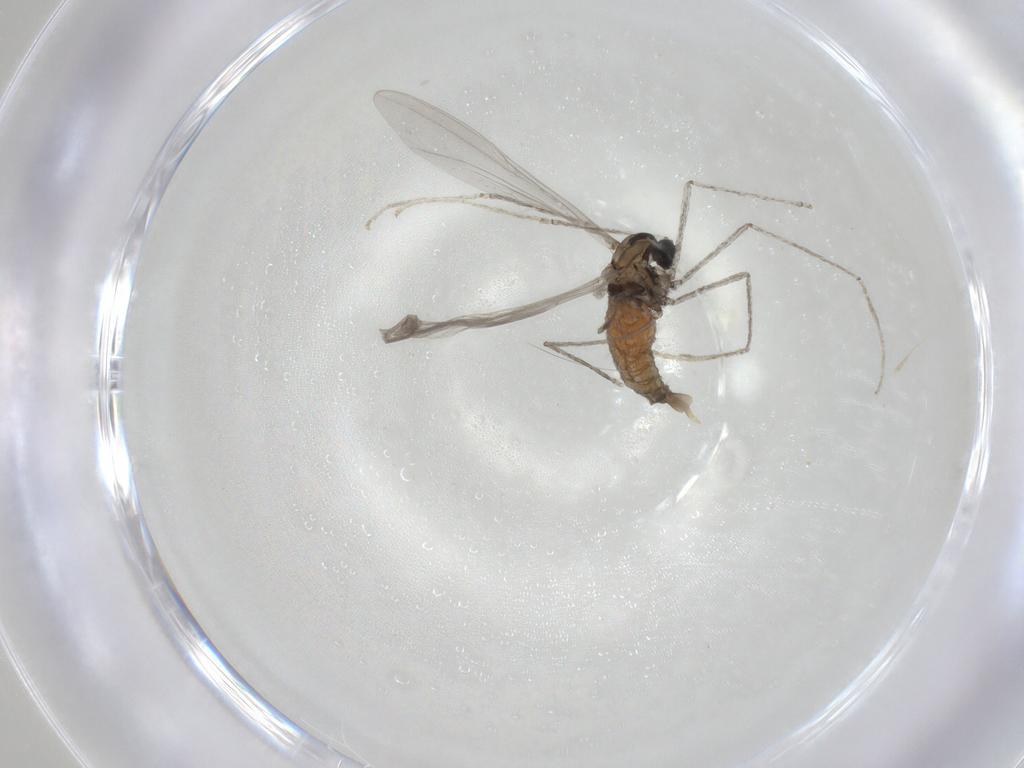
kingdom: Animalia
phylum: Arthropoda
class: Insecta
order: Diptera
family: Cecidomyiidae
